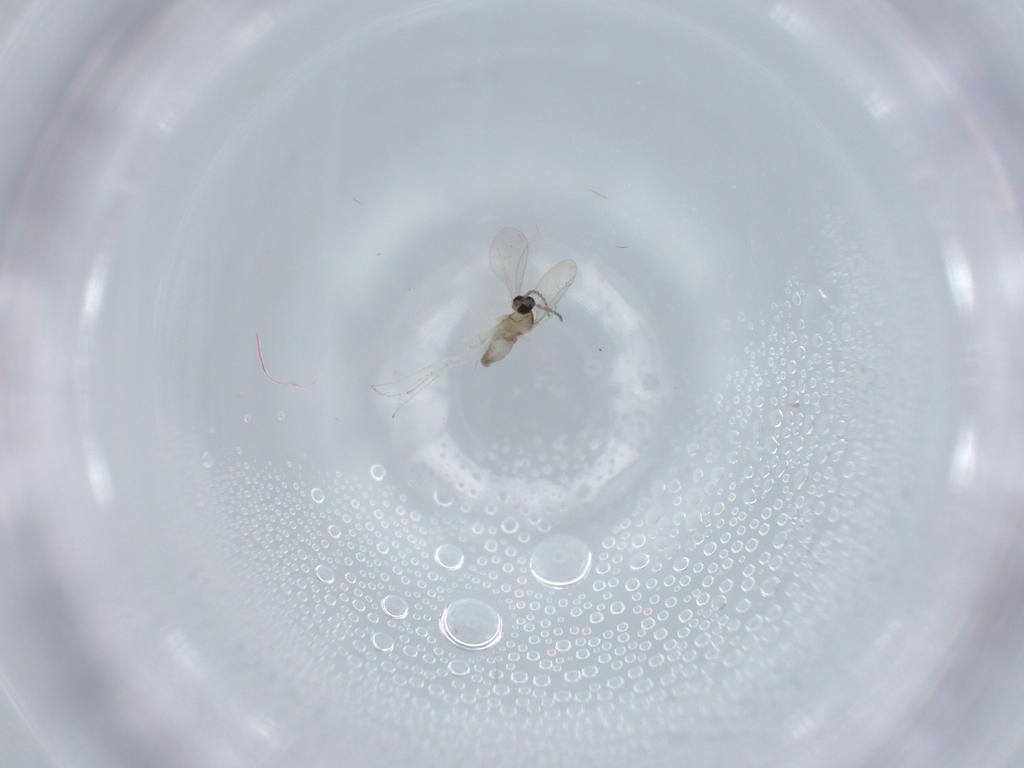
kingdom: Animalia
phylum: Arthropoda
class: Insecta
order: Diptera
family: Cecidomyiidae
